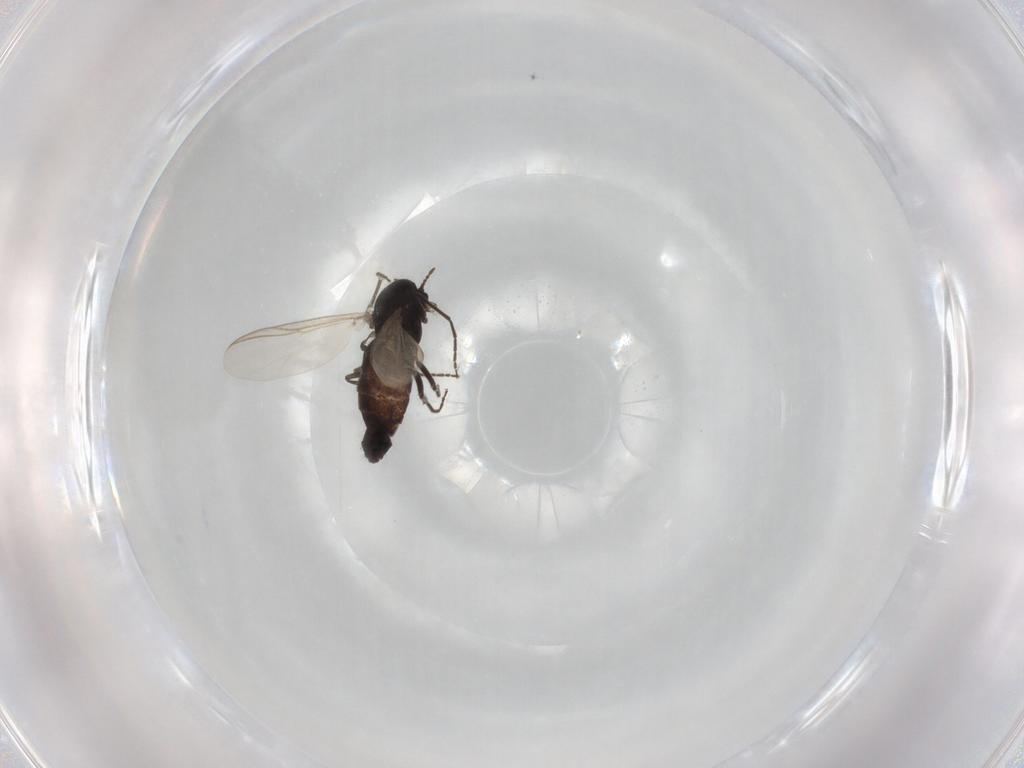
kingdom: Animalia
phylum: Arthropoda
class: Insecta
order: Diptera
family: Chironomidae
